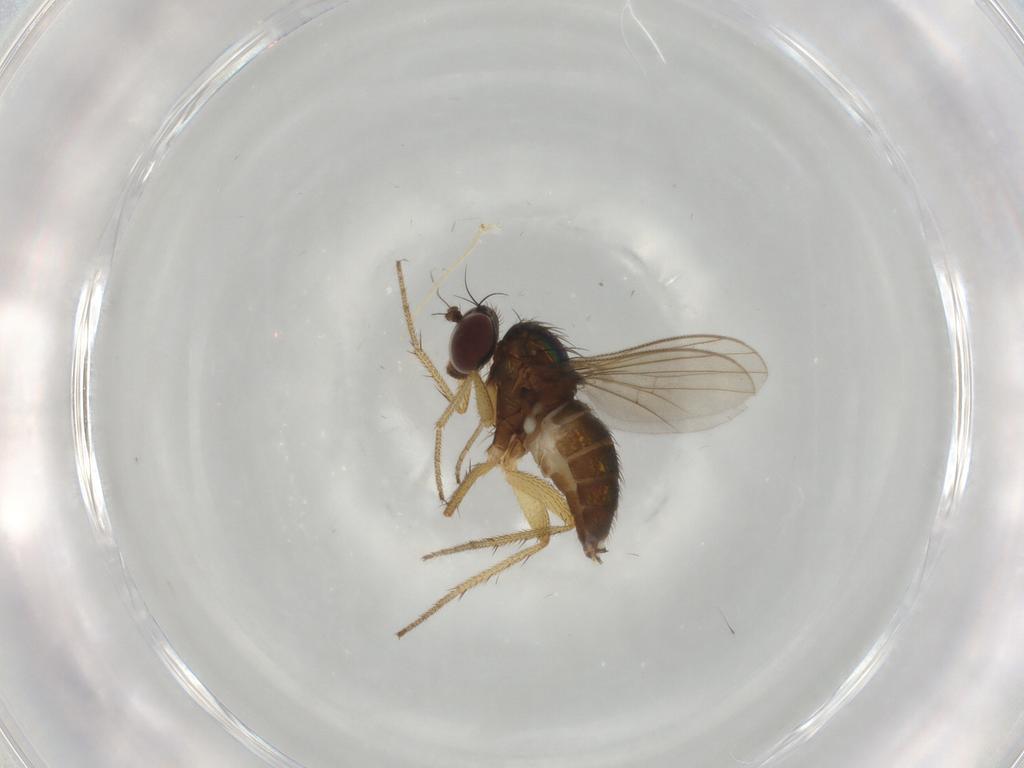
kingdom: Animalia
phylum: Arthropoda
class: Insecta
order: Diptera
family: Dolichopodidae
